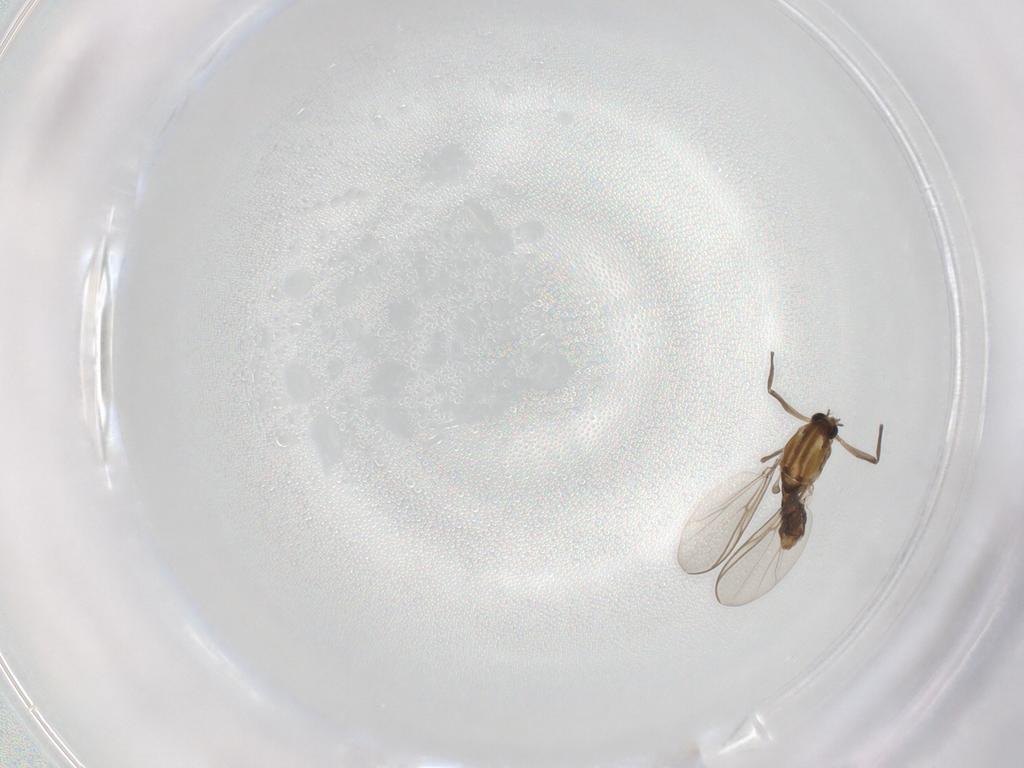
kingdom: Animalia
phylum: Arthropoda
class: Insecta
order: Diptera
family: Chironomidae
